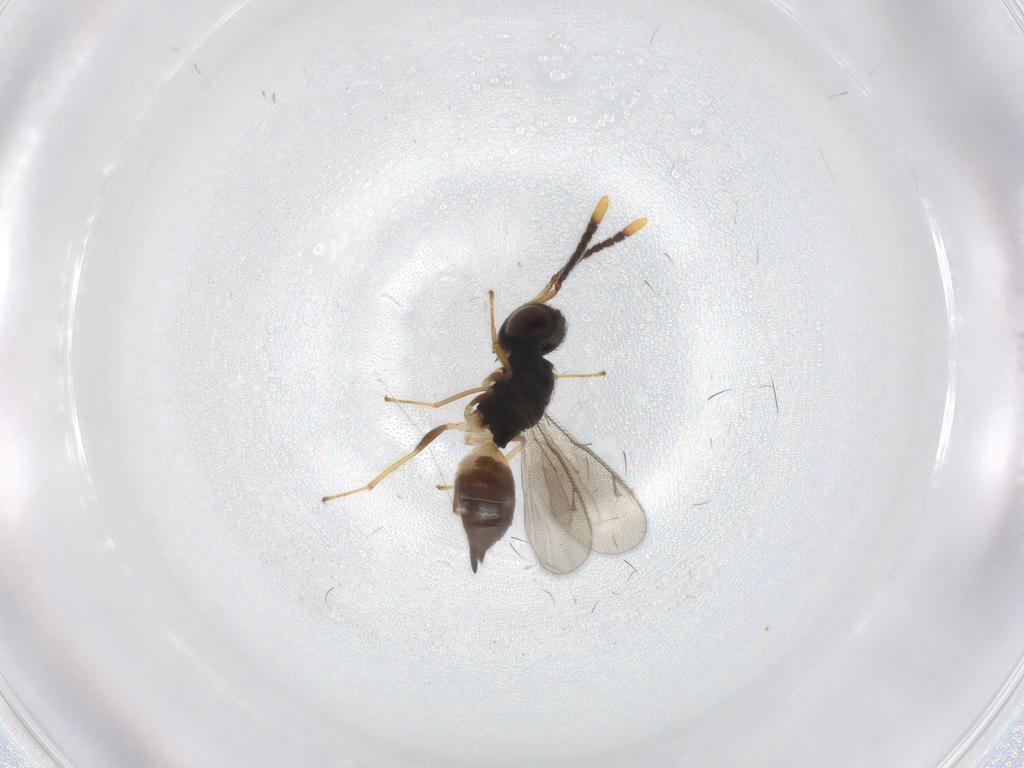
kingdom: Animalia
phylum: Arthropoda
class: Insecta
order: Hymenoptera
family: Pteromalidae
